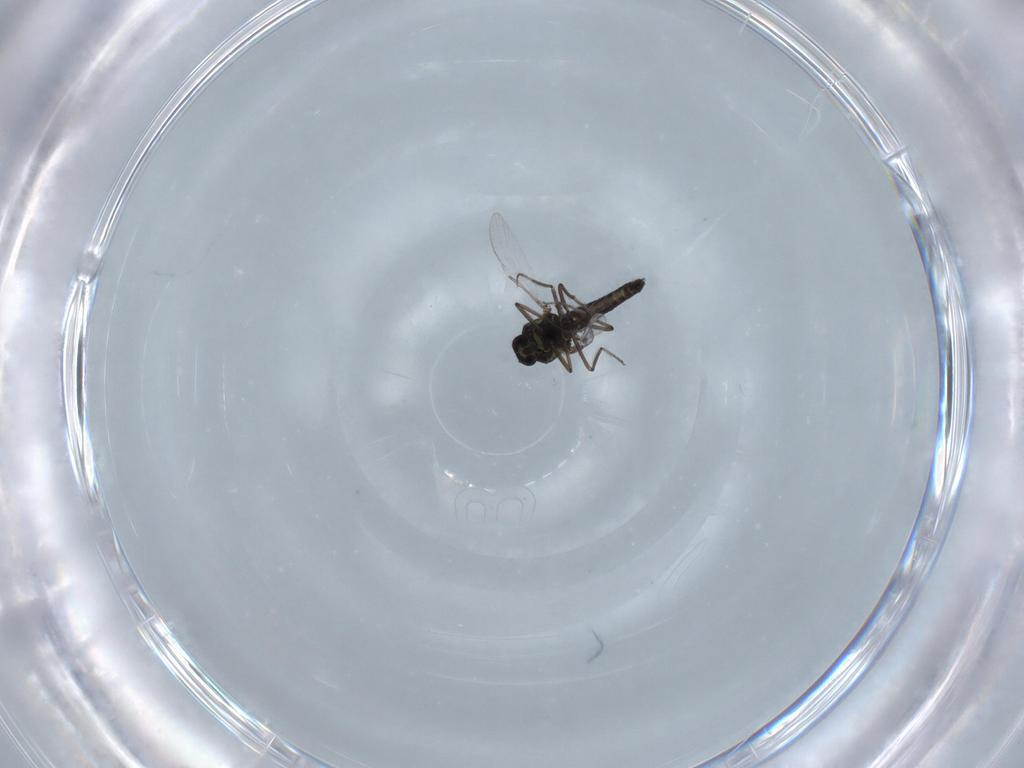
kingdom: Animalia
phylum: Arthropoda
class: Insecta
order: Diptera
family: Ceratopogonidae
